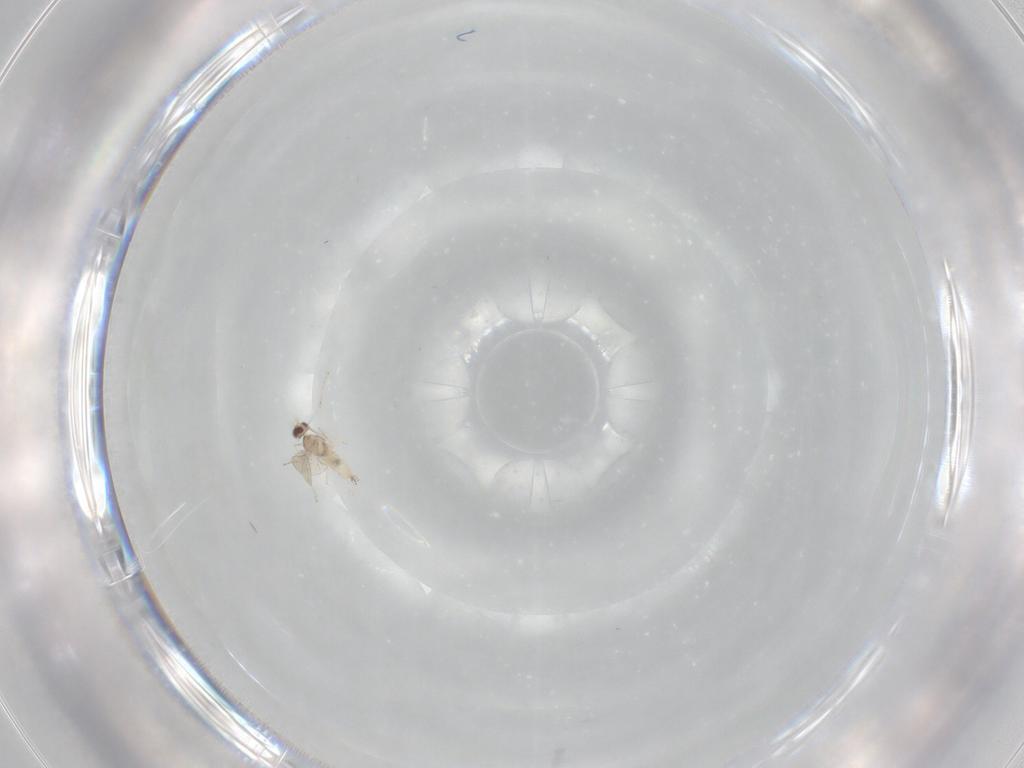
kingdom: Animalia
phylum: Arthropoda
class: Insecta
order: Diptera
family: Cecidomyiidae
